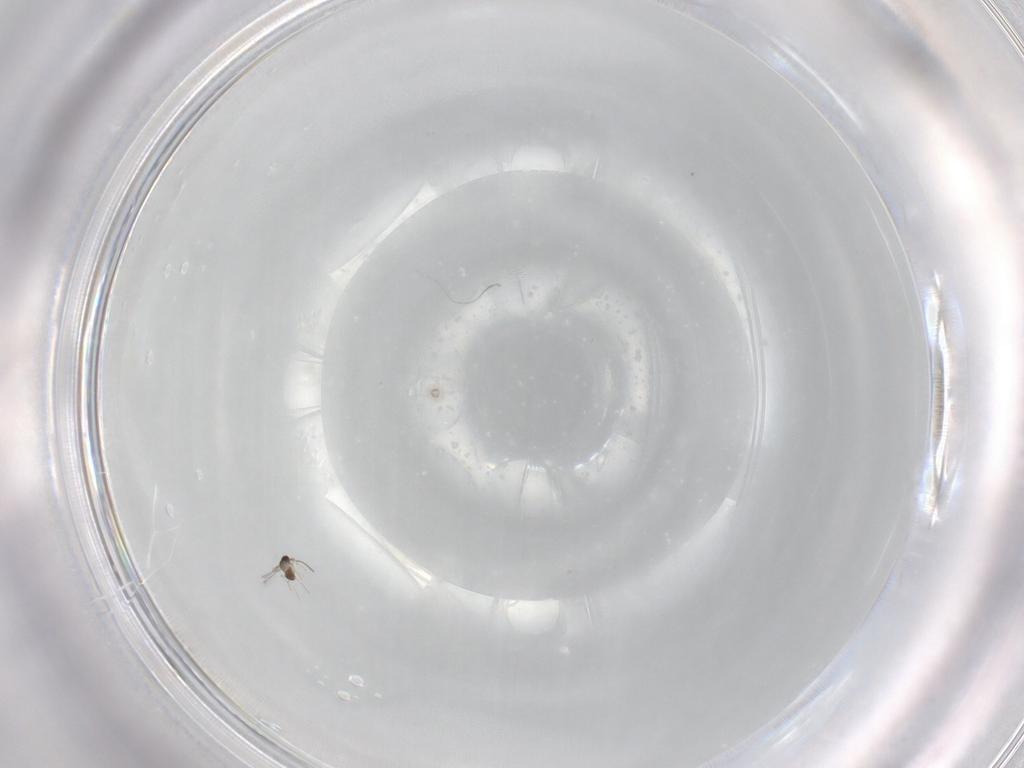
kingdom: Animalia
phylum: Arthropoda
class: Insecta
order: Hymenoptera
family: Mymaridae
